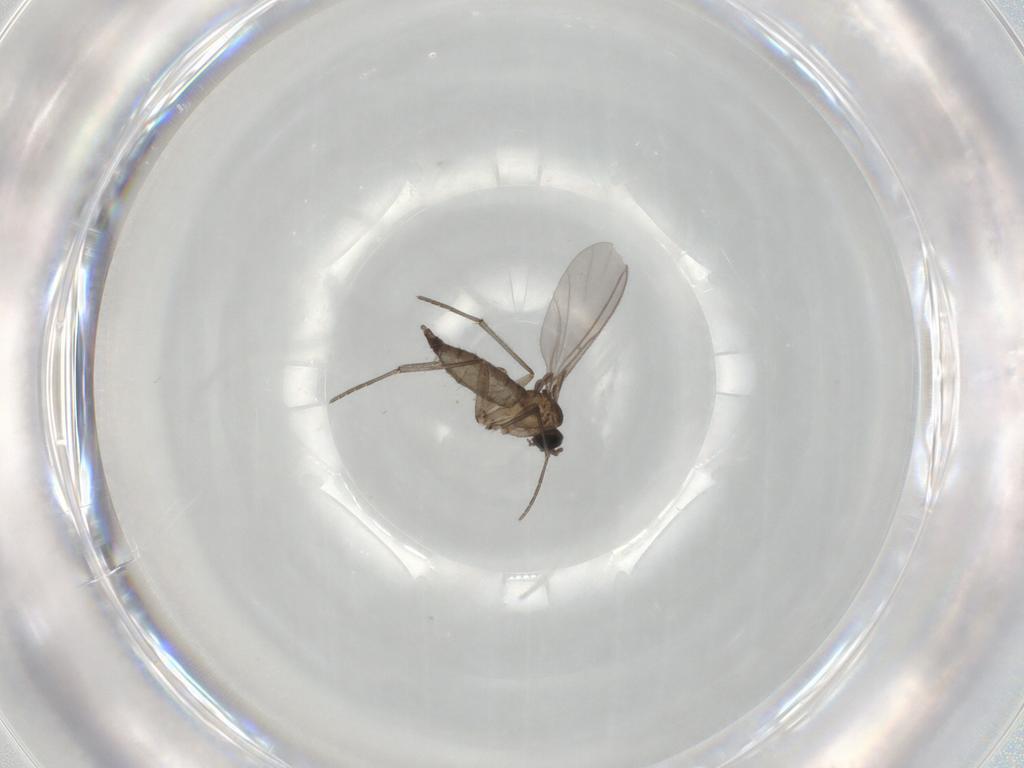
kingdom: Animalia
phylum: Arthropoda
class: Insecta
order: Diptera
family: Sciaridae
